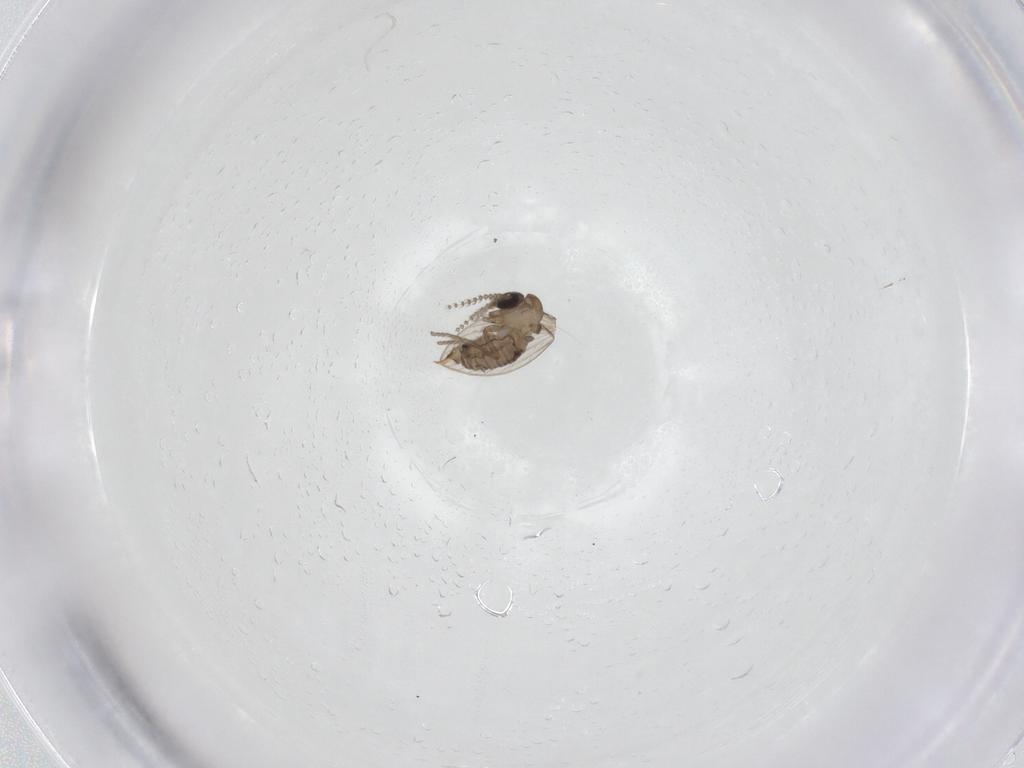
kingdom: Animalia
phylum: Arthropoda
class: Insecta
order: Diptera
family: Psychodidae
